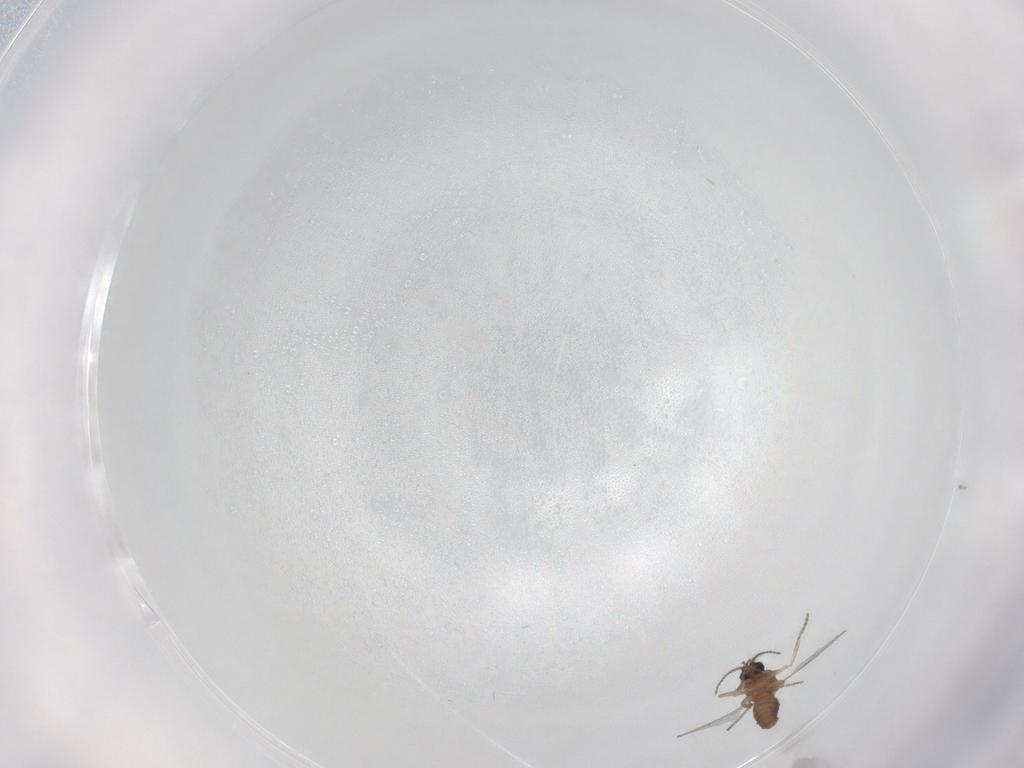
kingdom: Animalia
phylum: Arthropoda
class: Insecta
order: Diptera
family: Ceratopogonidae
